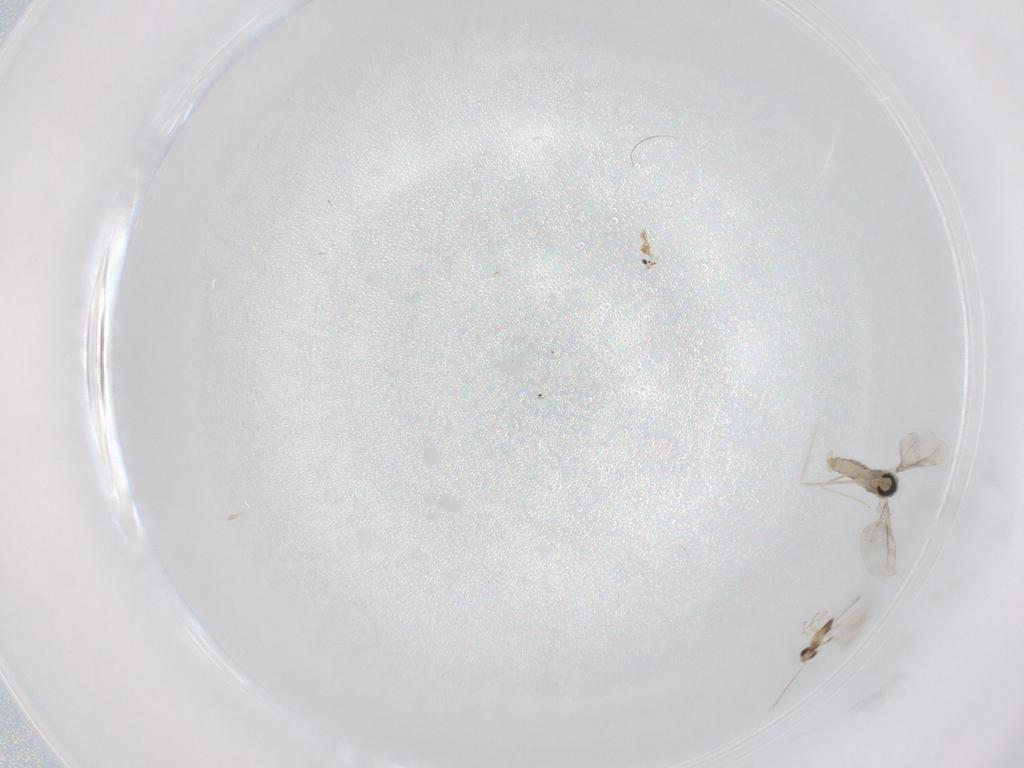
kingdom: Animalia
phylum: Arthropoda
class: Insecta
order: Diptera
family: Cecidomyiidae
